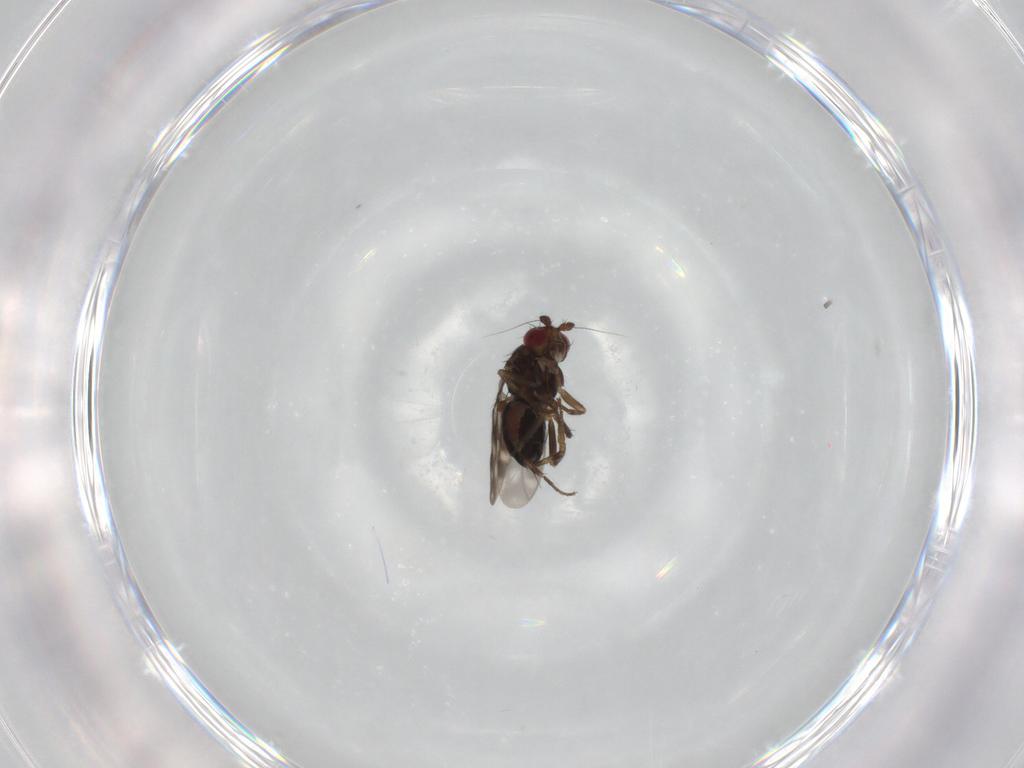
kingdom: Animalia
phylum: Arthropoda
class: Insecta
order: Diptera
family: Sphaeroceridae
